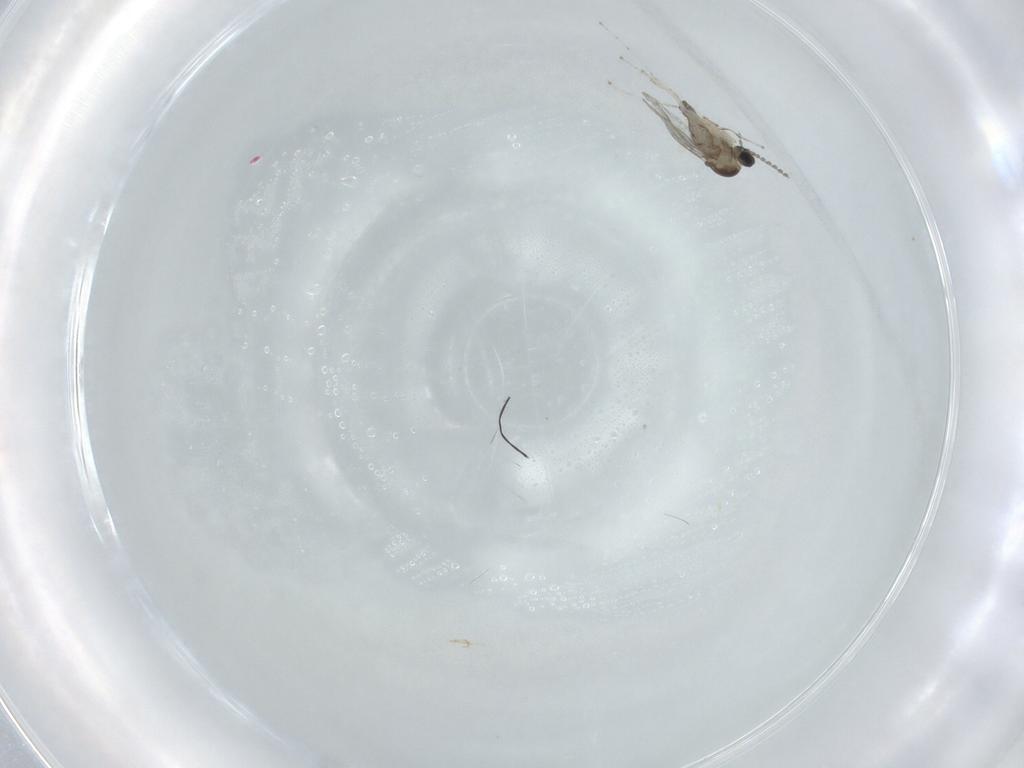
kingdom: Animalia
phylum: Arthropoda
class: Insecta
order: Diptera
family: Cecidomyiidae
